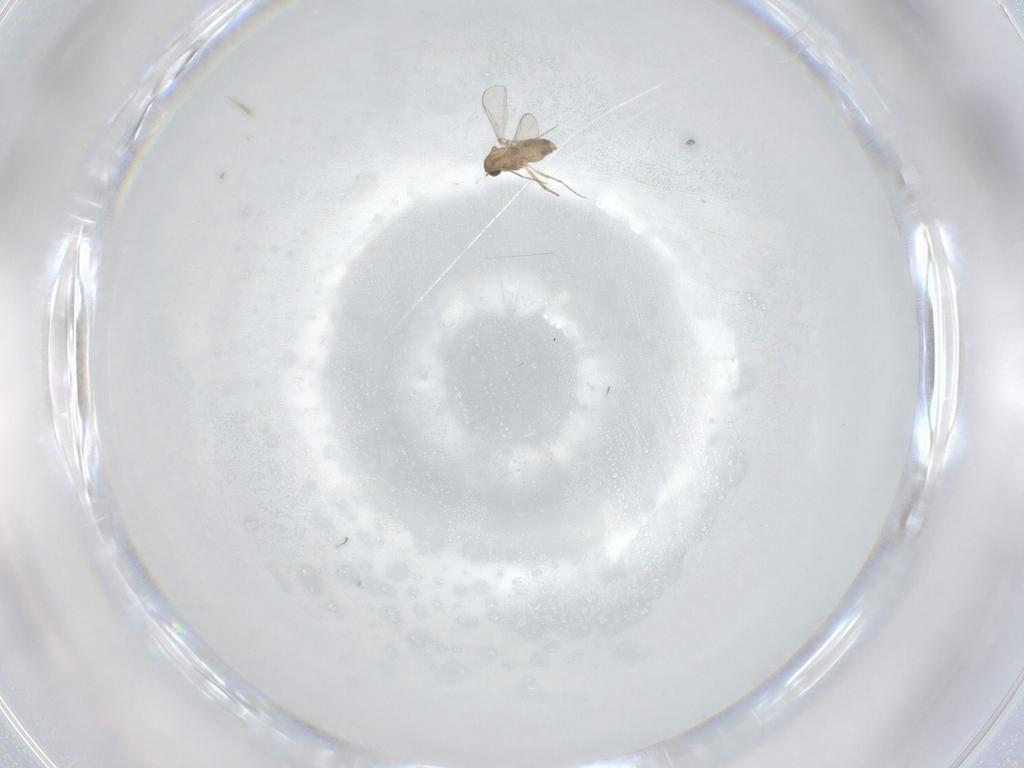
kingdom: Animalia
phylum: Arthropoda
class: Insecta
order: Diptera
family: Chironomidae
